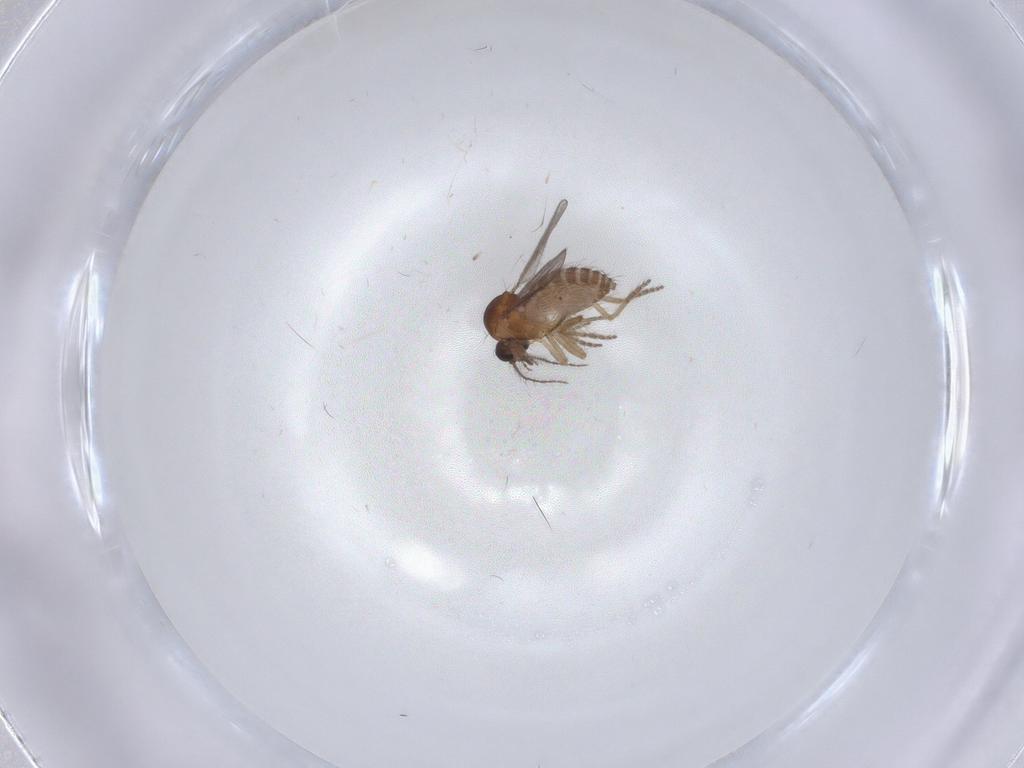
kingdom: Animalia
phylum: Arthropoda
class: Insecta
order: Diptera
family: Ceratopogonidae
